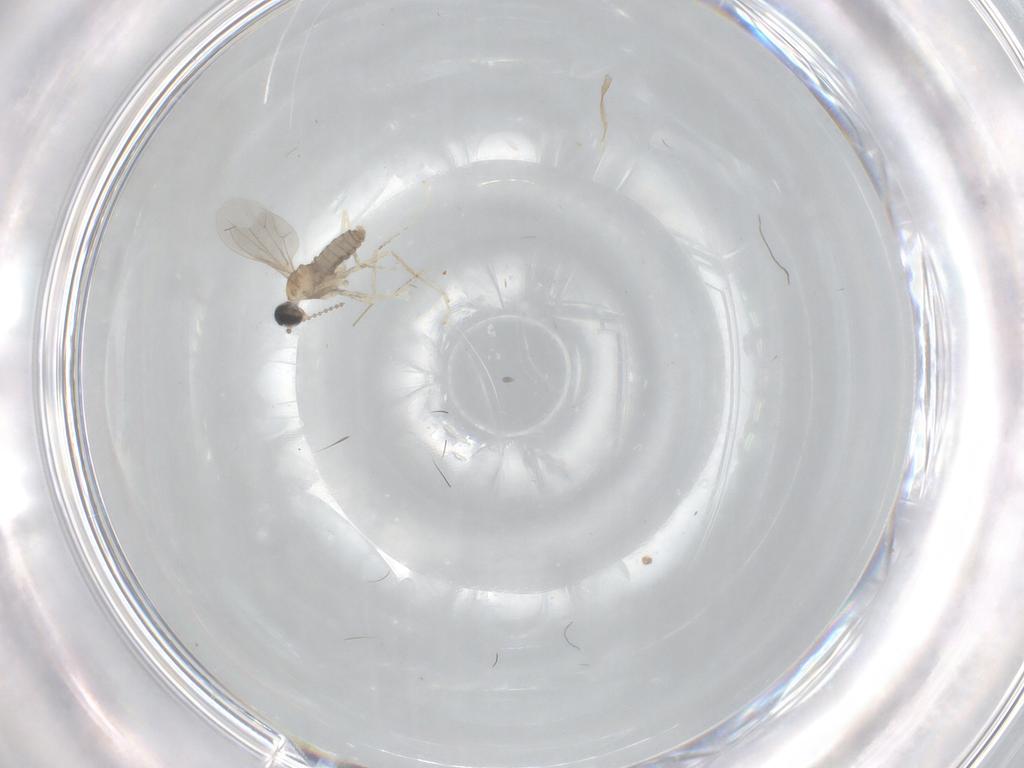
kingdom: Animalia
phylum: Arthropoda
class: Insecta
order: Diptera
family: Cecidomyiidae
